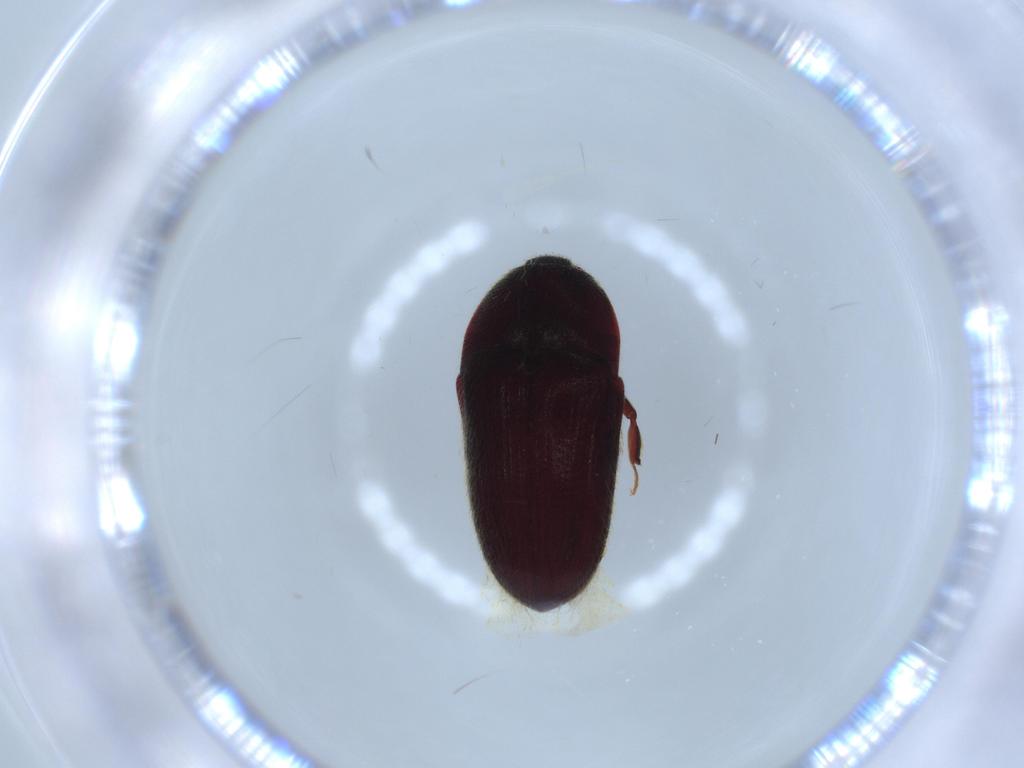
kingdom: Animalia
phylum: Arthropoda
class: Insecta
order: Coleoptera
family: Throscidae
